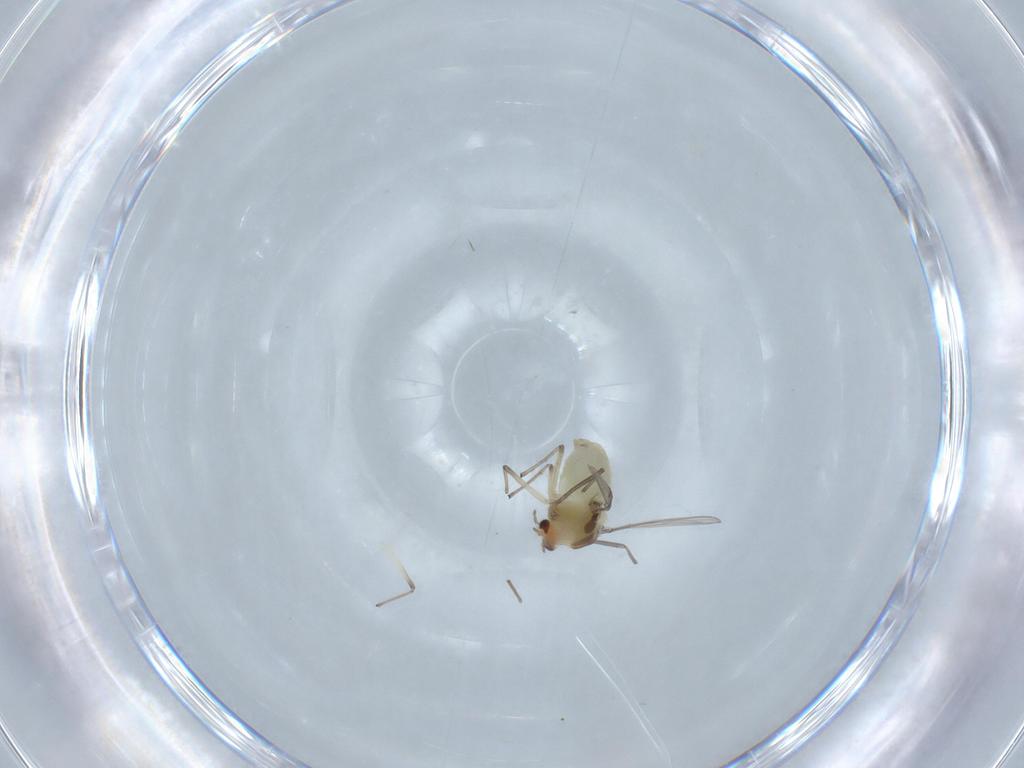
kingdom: Animalia
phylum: Arthropoda
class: Insecta
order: Diptera
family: Chironomidae
